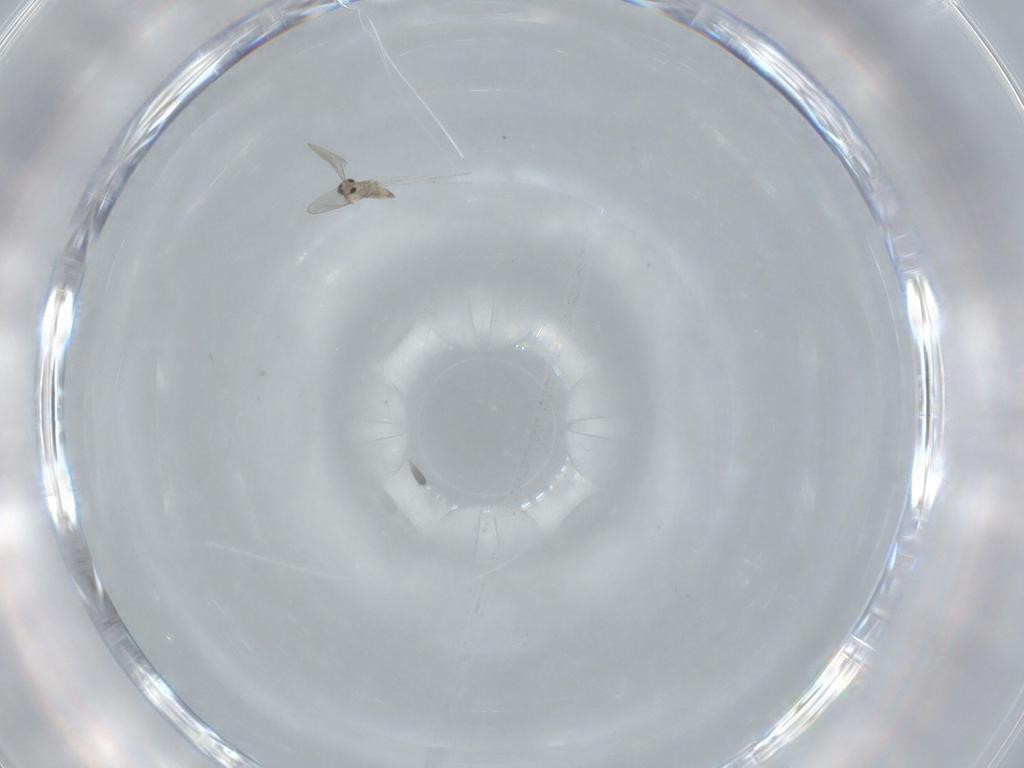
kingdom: Animalia
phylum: Arthropoda
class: Insecta
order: Diptera
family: Cecidomyiidae
